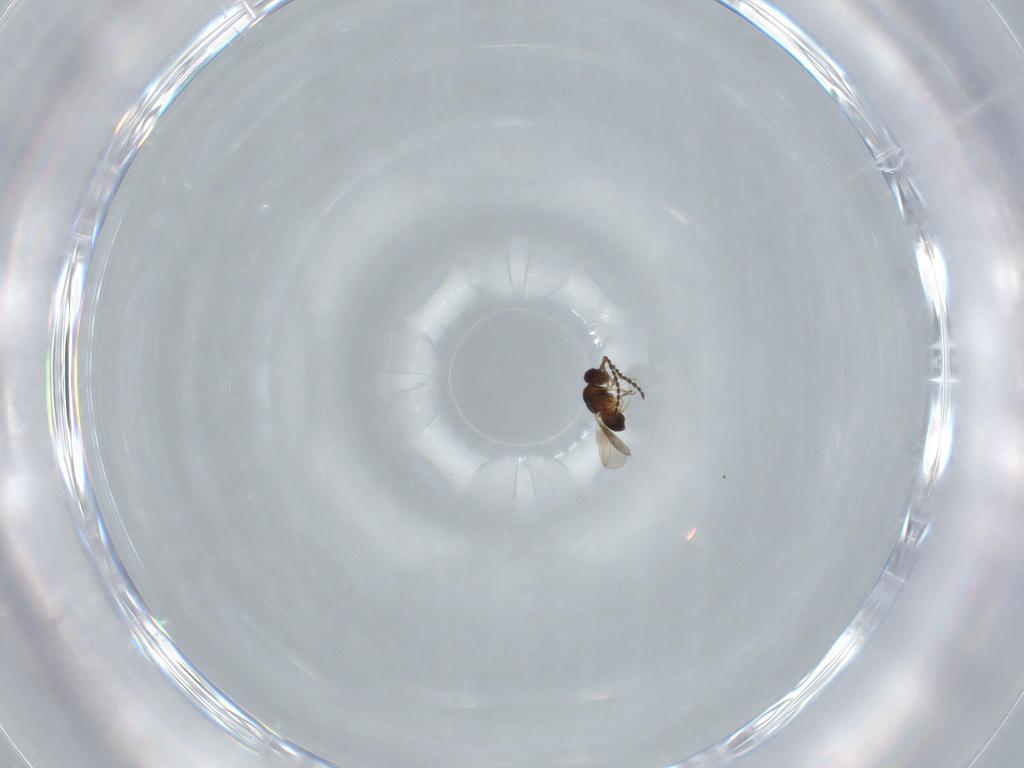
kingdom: Animalia
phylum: Arthropoda
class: Insecta
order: Hymenoptera
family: Ceraphronidae
